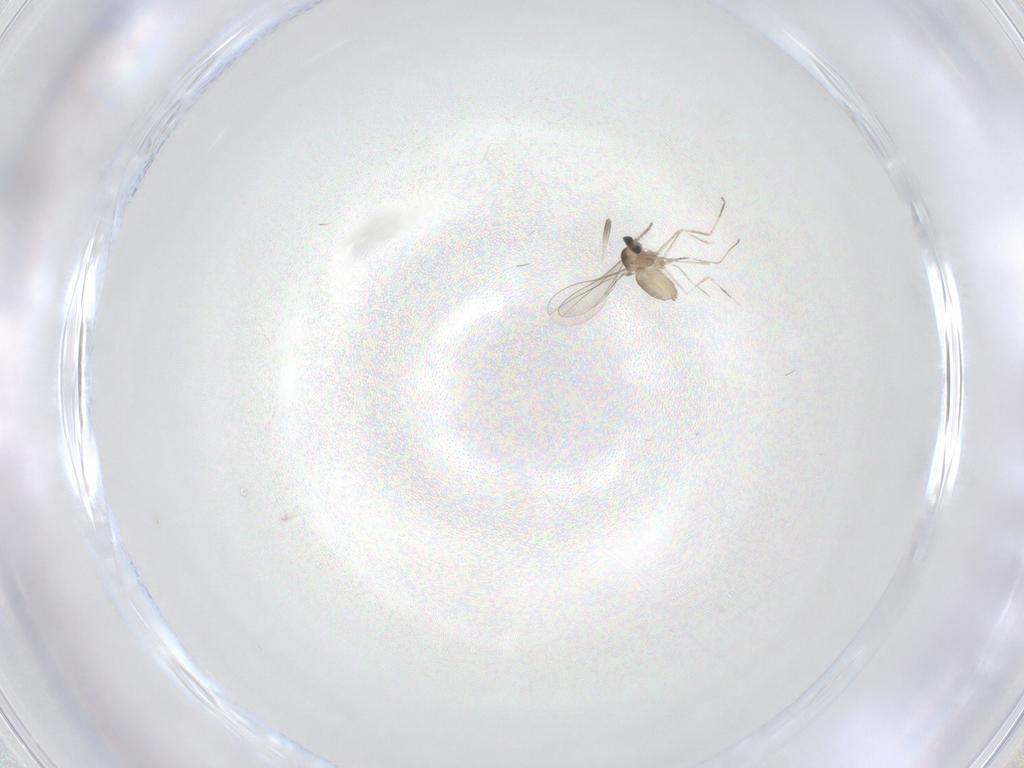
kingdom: Animalia
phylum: Arthropoda
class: Insecta
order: Diptera
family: Cecidomyiidae
